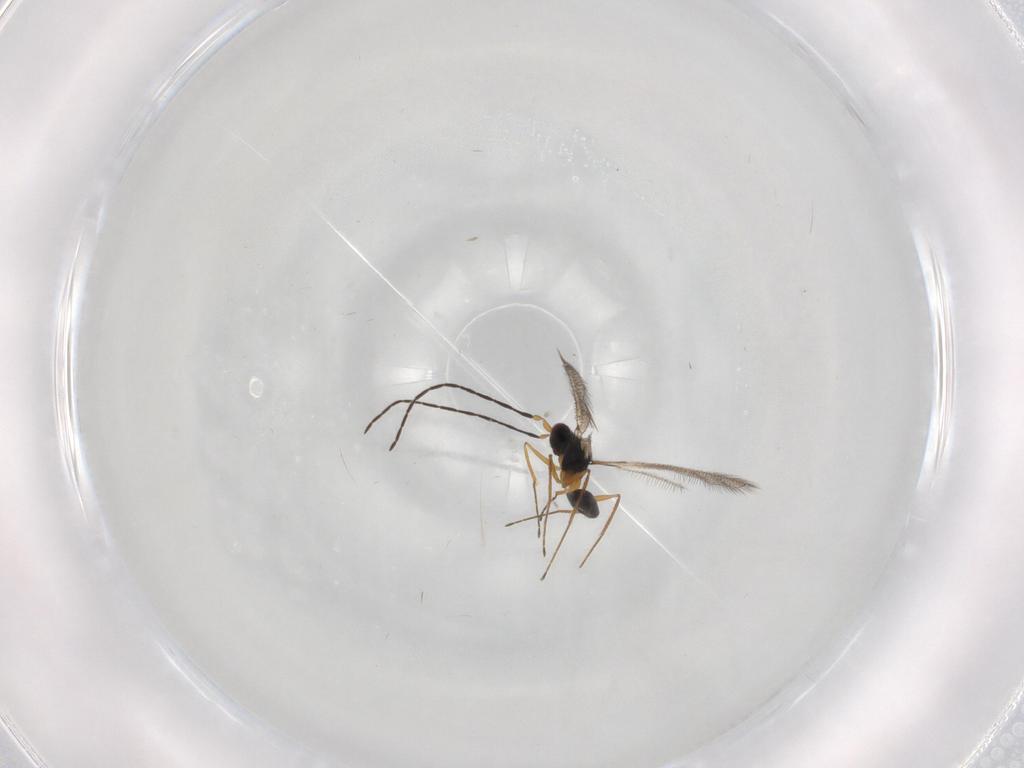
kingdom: Animalia
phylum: Arthropoda
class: Insecta
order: Hymenoptera
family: Mymaridae
